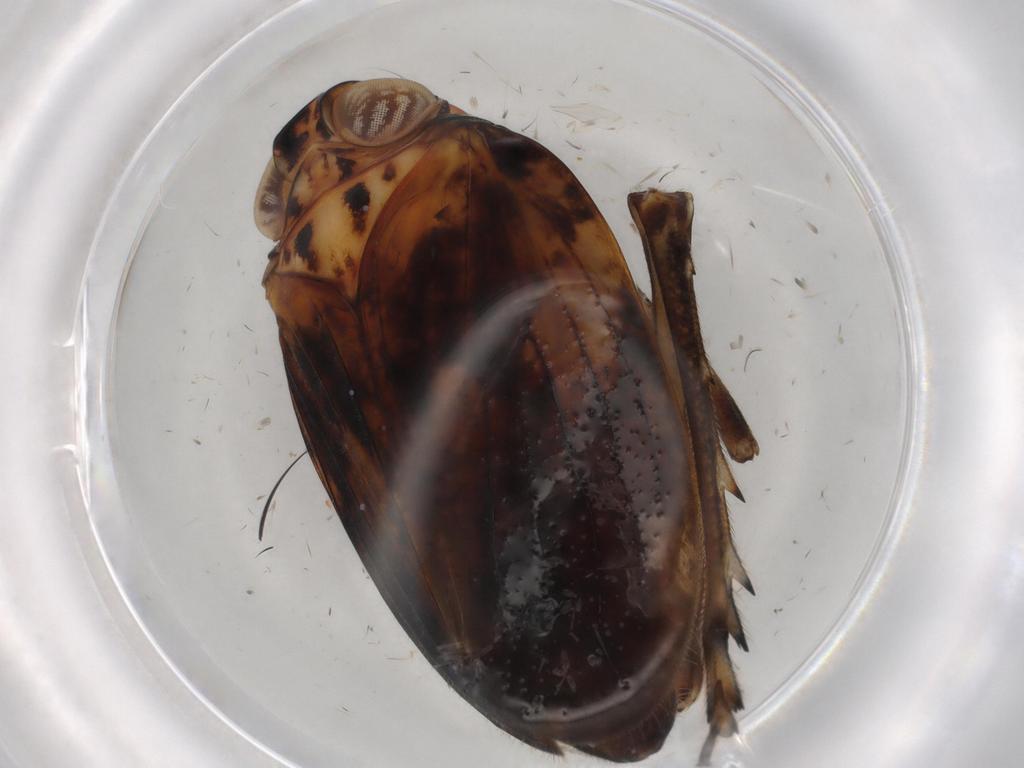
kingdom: Animalia
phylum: Arthropoda
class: Insecta
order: Hemiptera
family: Issidae
